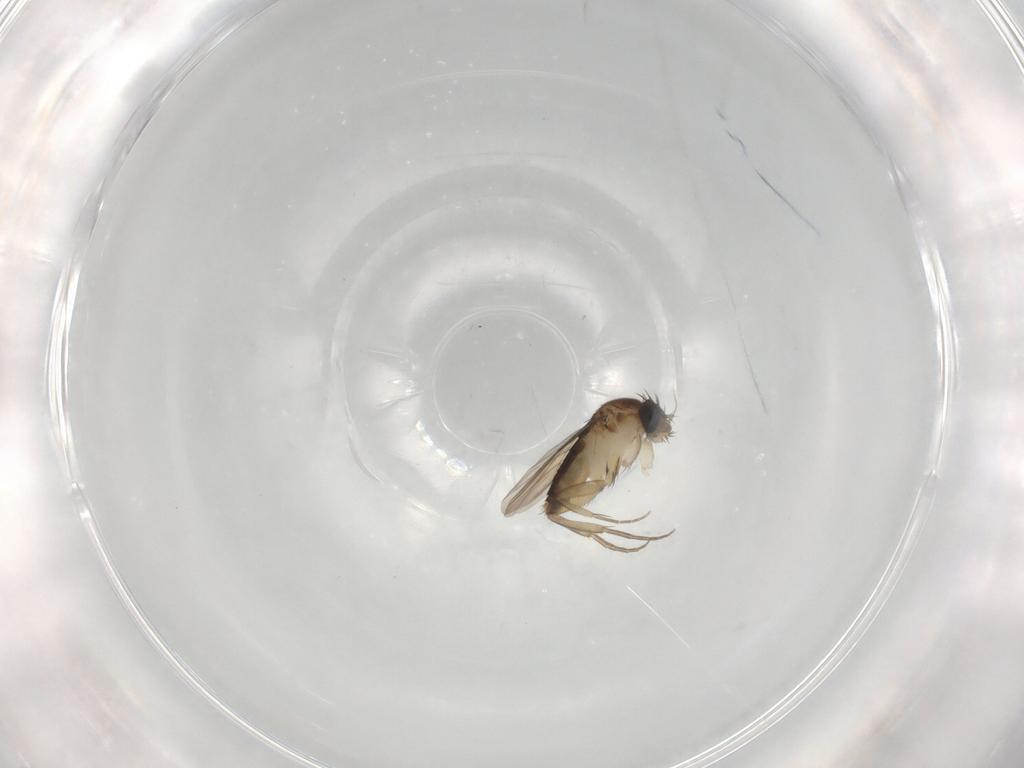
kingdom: Animalia
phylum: Arthropoda
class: Insecta
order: Diptera
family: Phoridae
